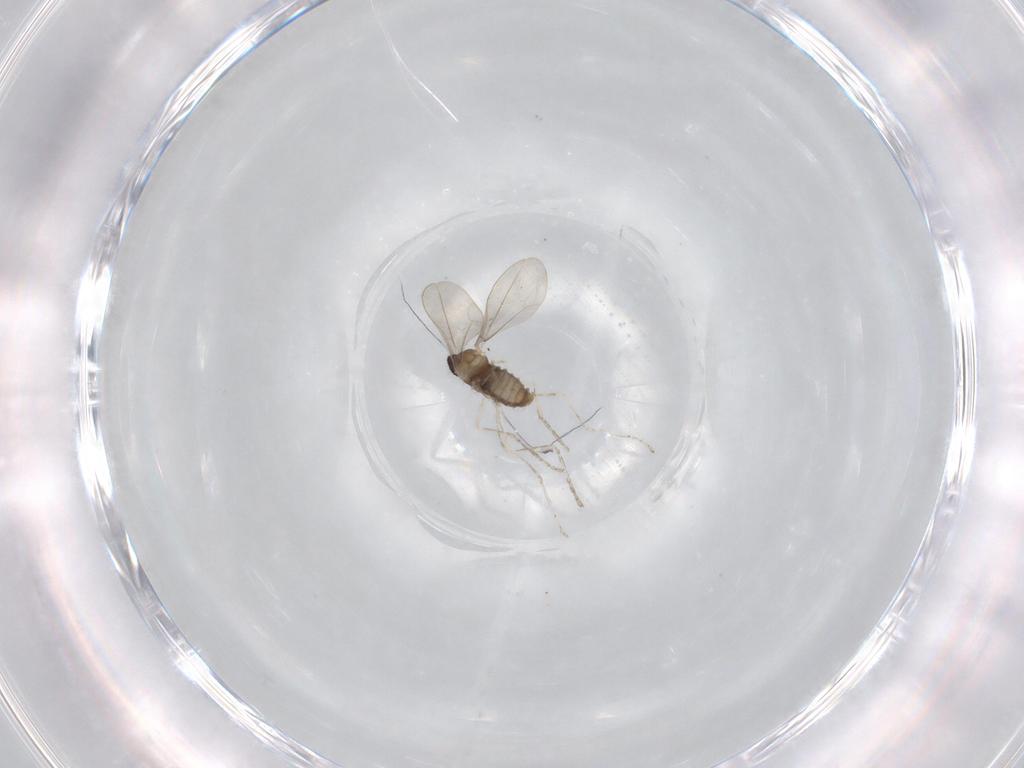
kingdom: Animalia
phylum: Arthropoda
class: Insecta
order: Diptera
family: Cecidomyiidae
